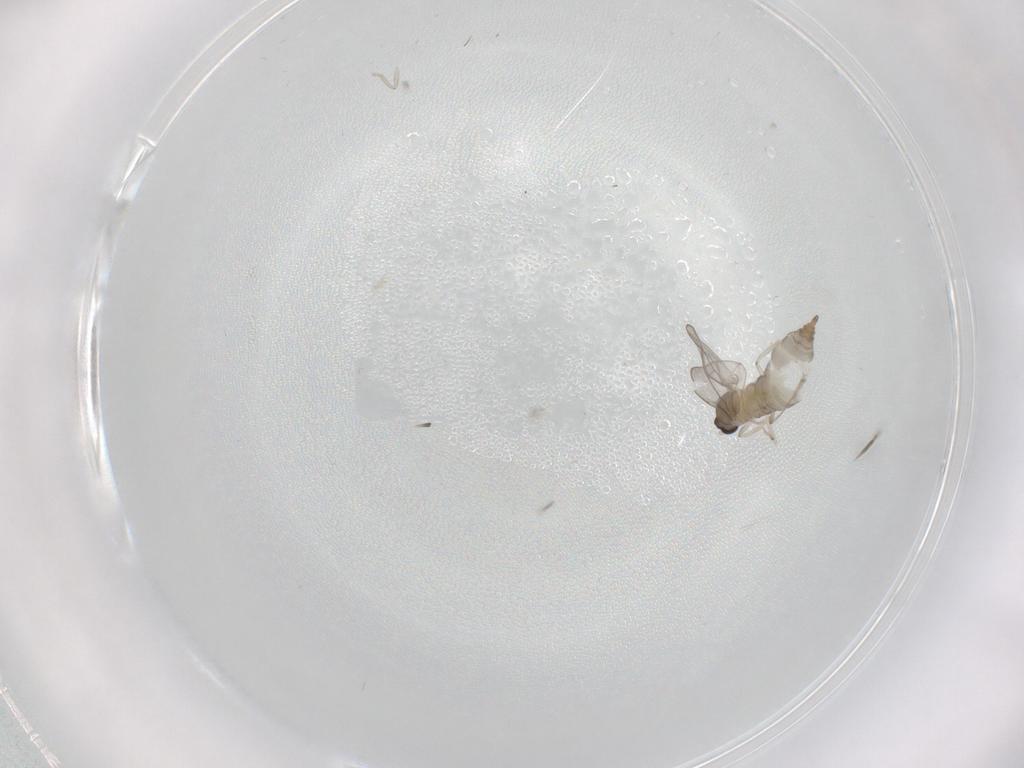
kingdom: Animalia
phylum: Arthropoda
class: Insecta
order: Diptera
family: Cecidomyiidae
